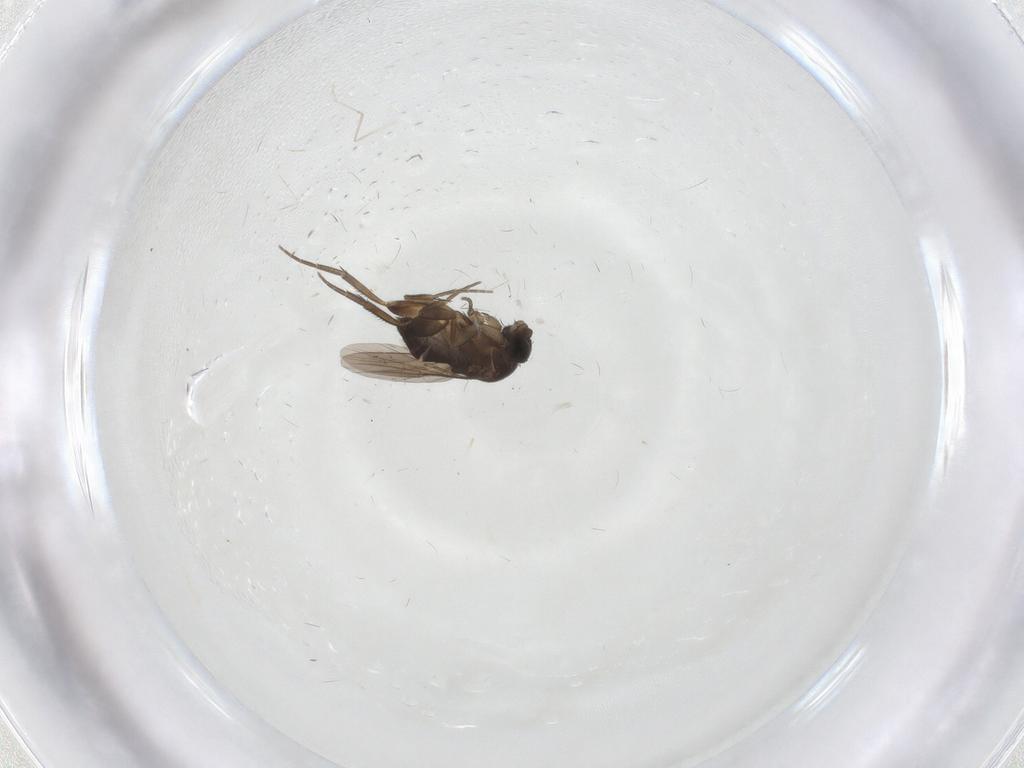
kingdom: Animalia
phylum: Arthropoda
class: Insecta
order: Diptera
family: Phoridae
